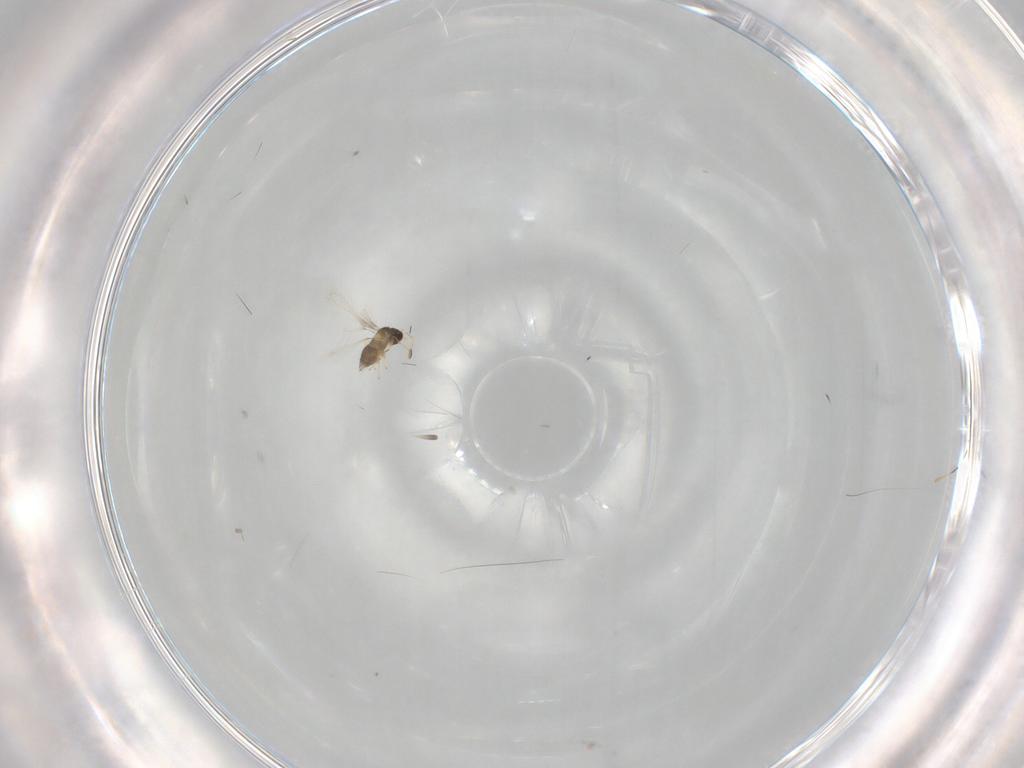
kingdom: Animalia
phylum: Arthropoda
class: Insecta
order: Hymenoptera
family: Mymaridae
